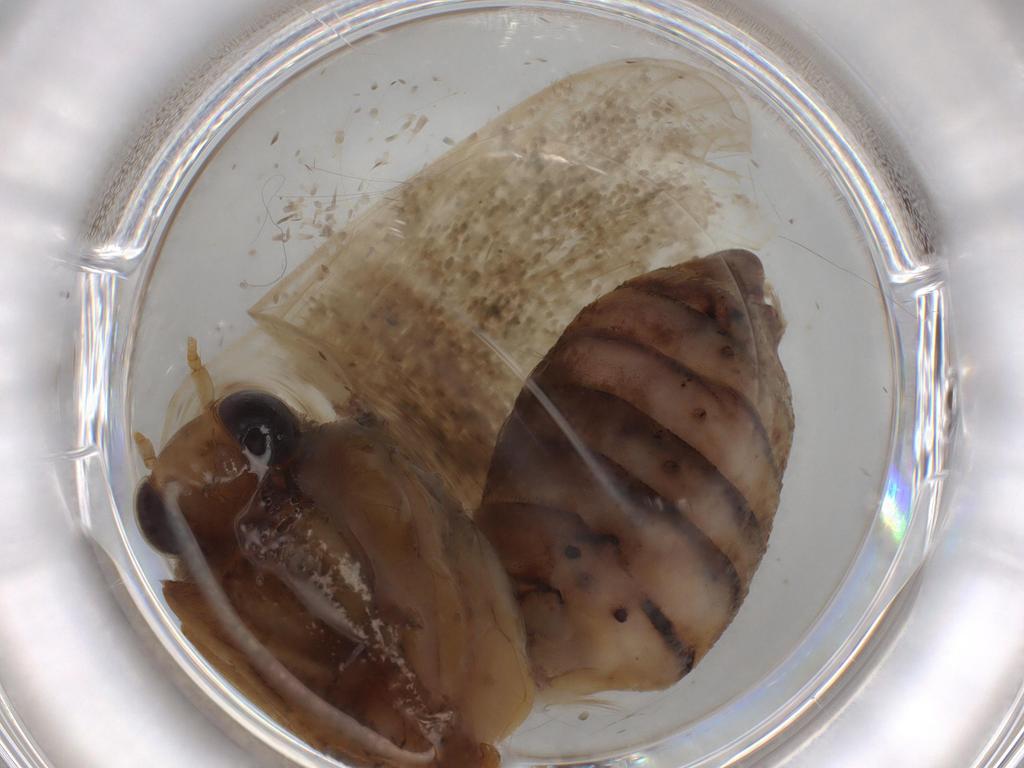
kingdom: Animalia
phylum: Arthropoda
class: Insecta
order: Diptera
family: Phoridae
